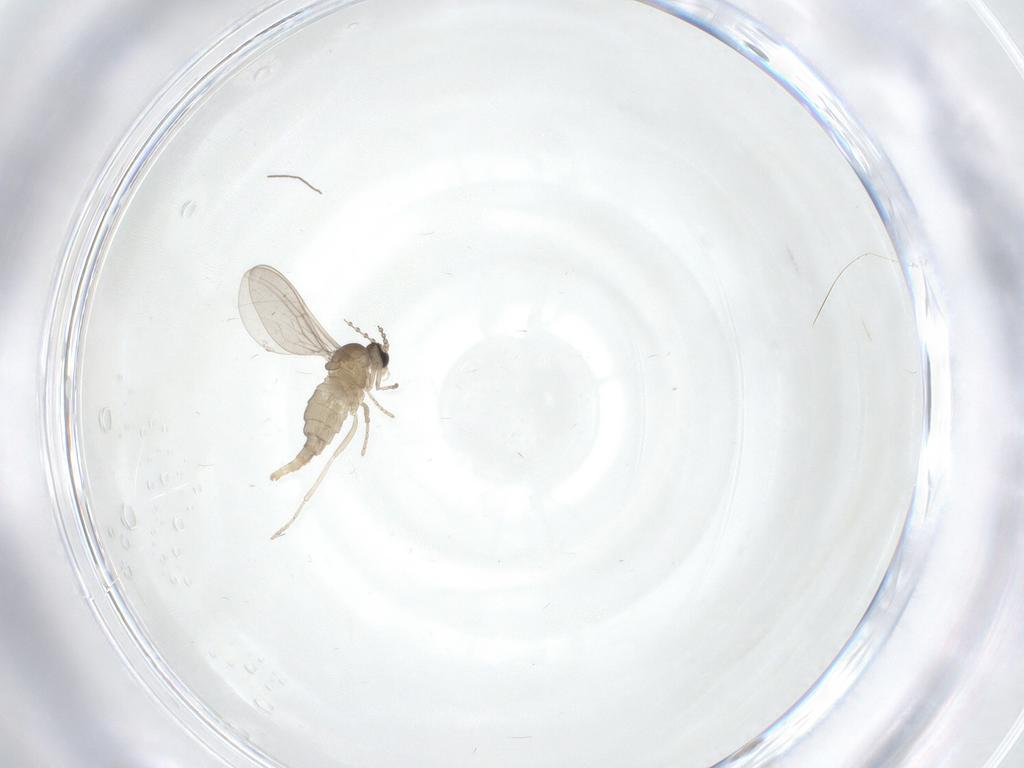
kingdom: Animalia
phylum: Arthropoda
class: Insecta
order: Diptera
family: Cecidomyiidae
